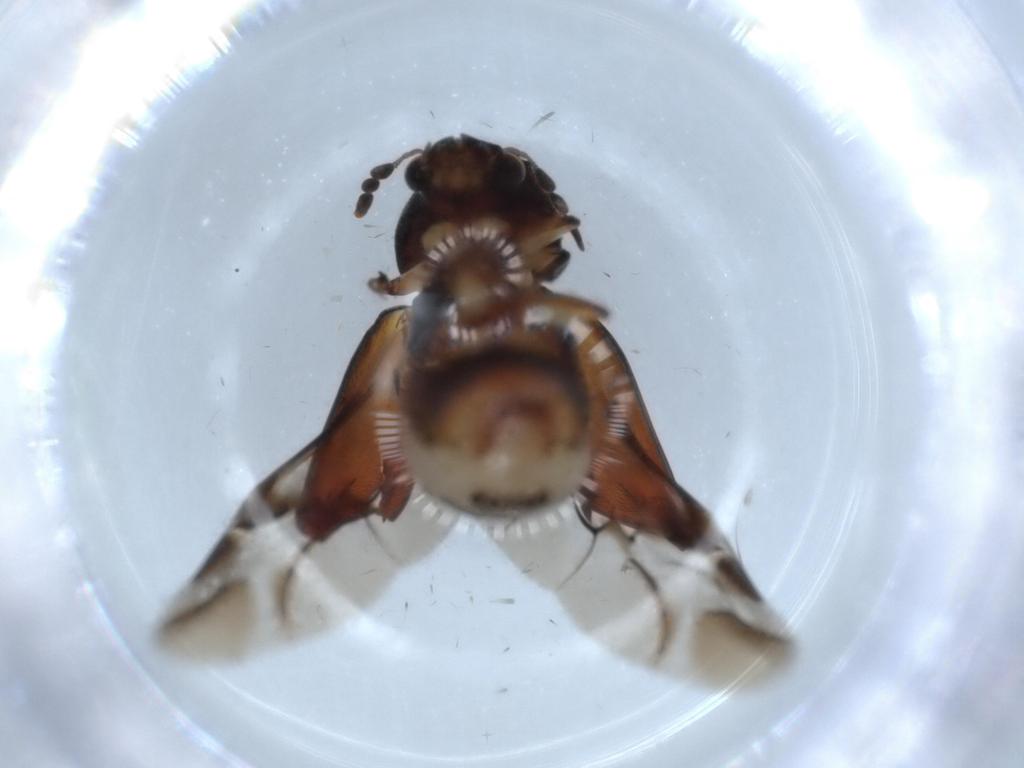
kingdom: Animalia
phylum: Arthropoda
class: Insecta
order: Coleoptera
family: Bostrichidae
